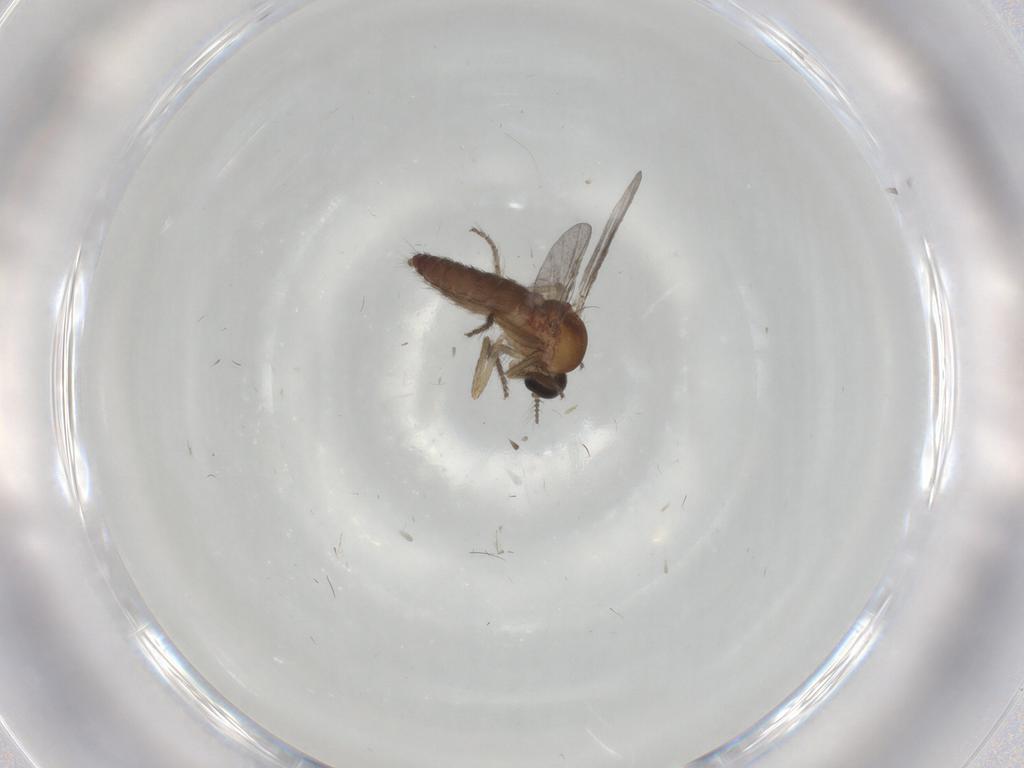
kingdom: Animalia
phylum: Arthropoda
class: Insecta
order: Diptera
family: Ceratopogonidae
